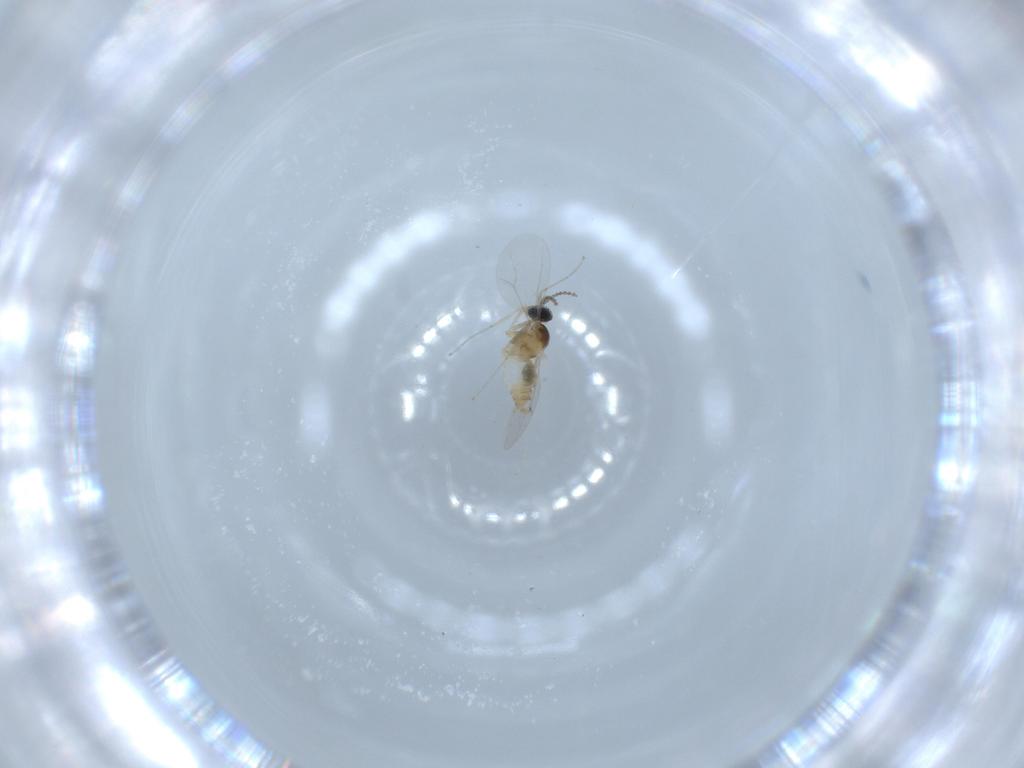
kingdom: Animalia
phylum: Arthropoda
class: Insecta
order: Diptera
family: Cecidomyiidae
